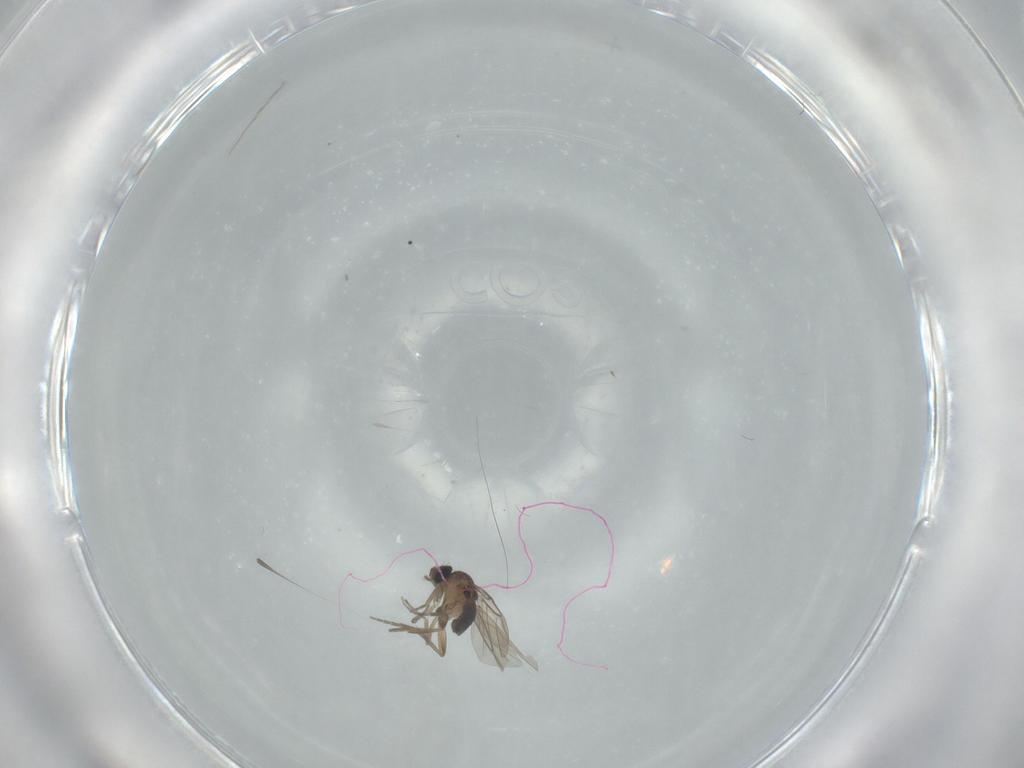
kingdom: Animalia
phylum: Arthropoda
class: Insecta
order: Diptera
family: Phoridae
